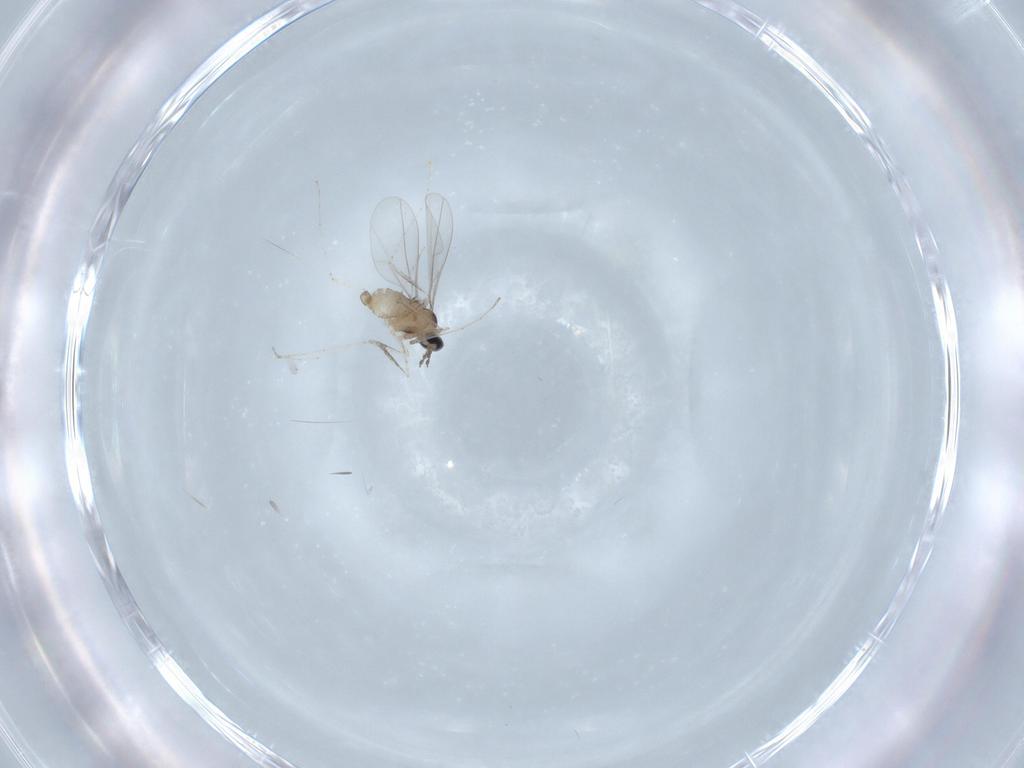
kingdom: Animalia
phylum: Arthropoda
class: Insecta
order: Diptera
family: Cecidomyiidae
